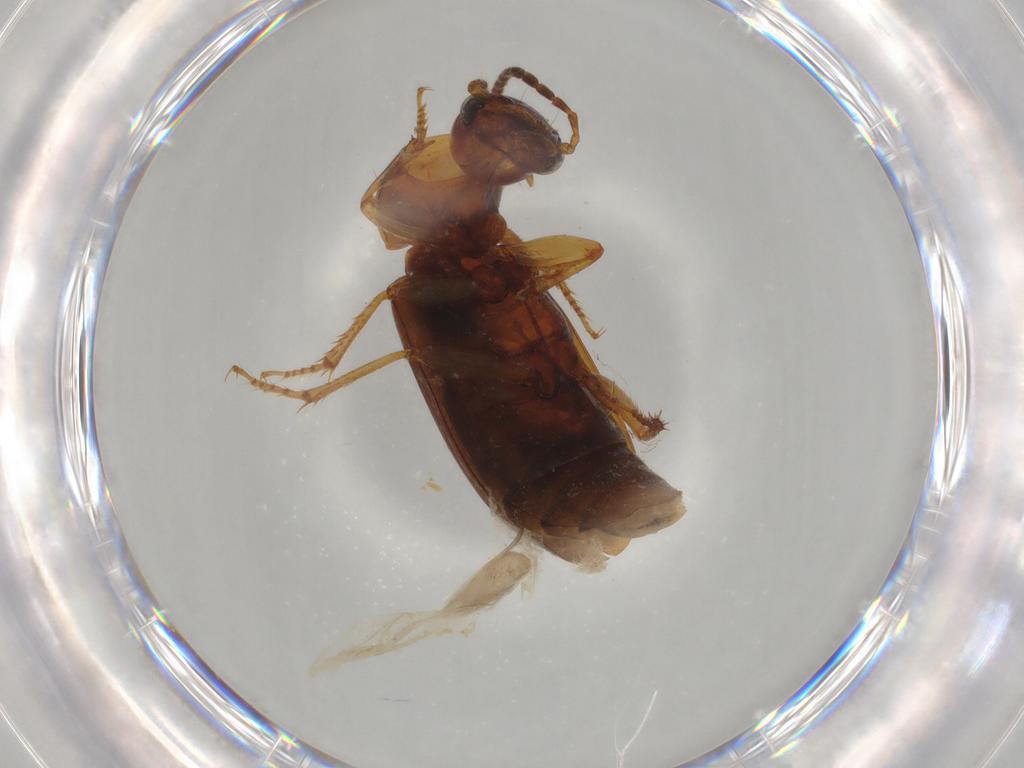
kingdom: Animalia
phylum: Arthropoda
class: Insecta
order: Coleoptera
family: Carabidae
